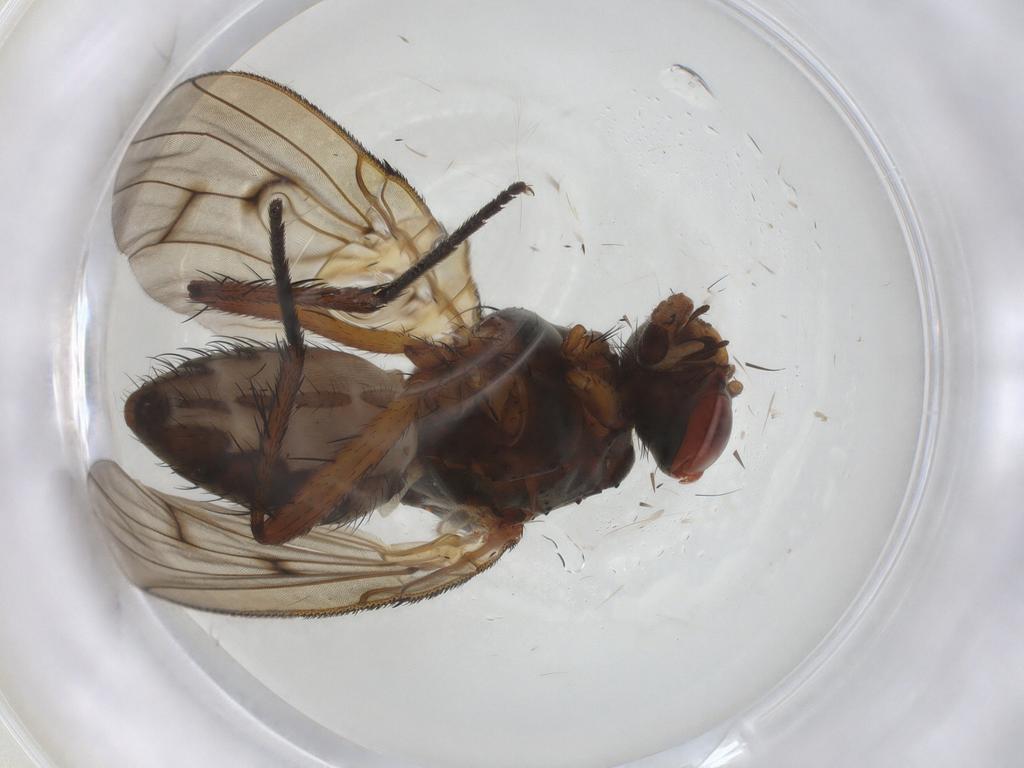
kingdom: Animalia
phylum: Arthropoda
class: Insecta
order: Diptera
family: Anthomyiidae
